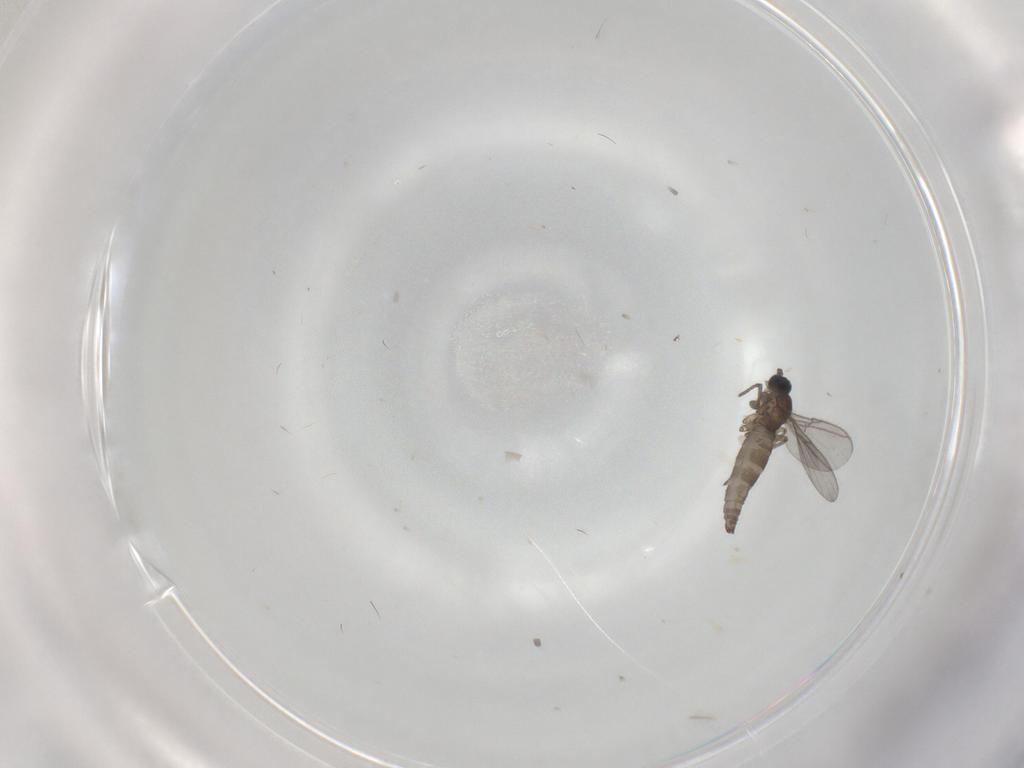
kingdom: Animalia
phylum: Arthropoda
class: Insecta
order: Diptera
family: Sciaridae
